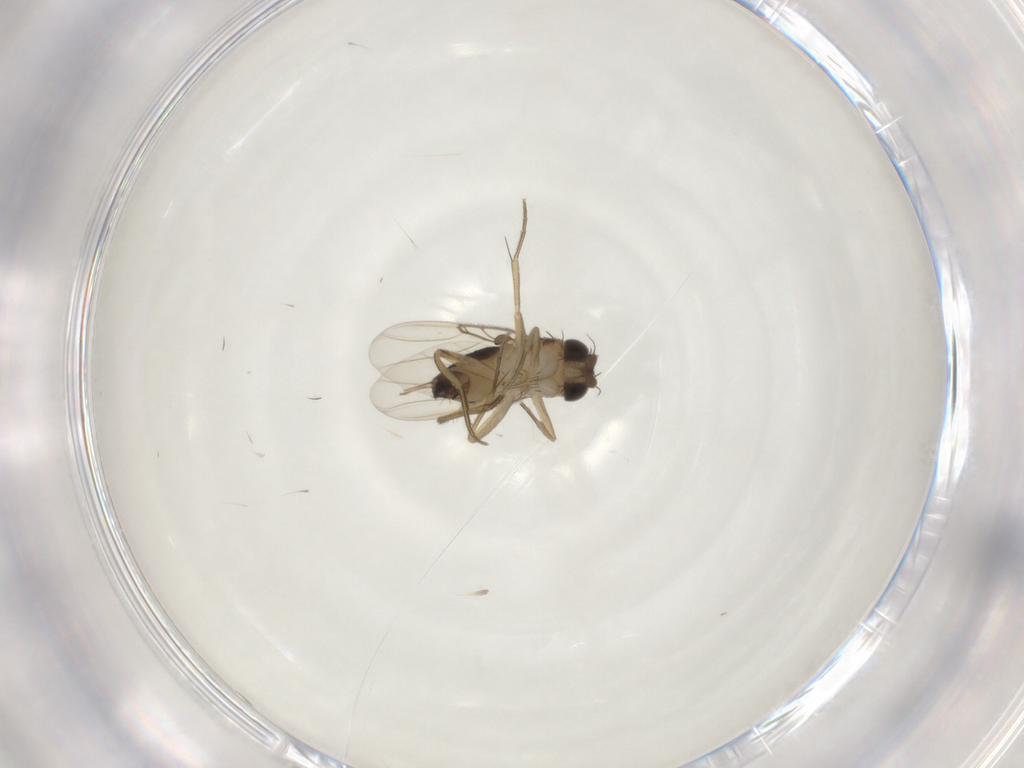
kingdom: Animalia
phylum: Arthropoda
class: Insecta
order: Diptera
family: Phoridae
